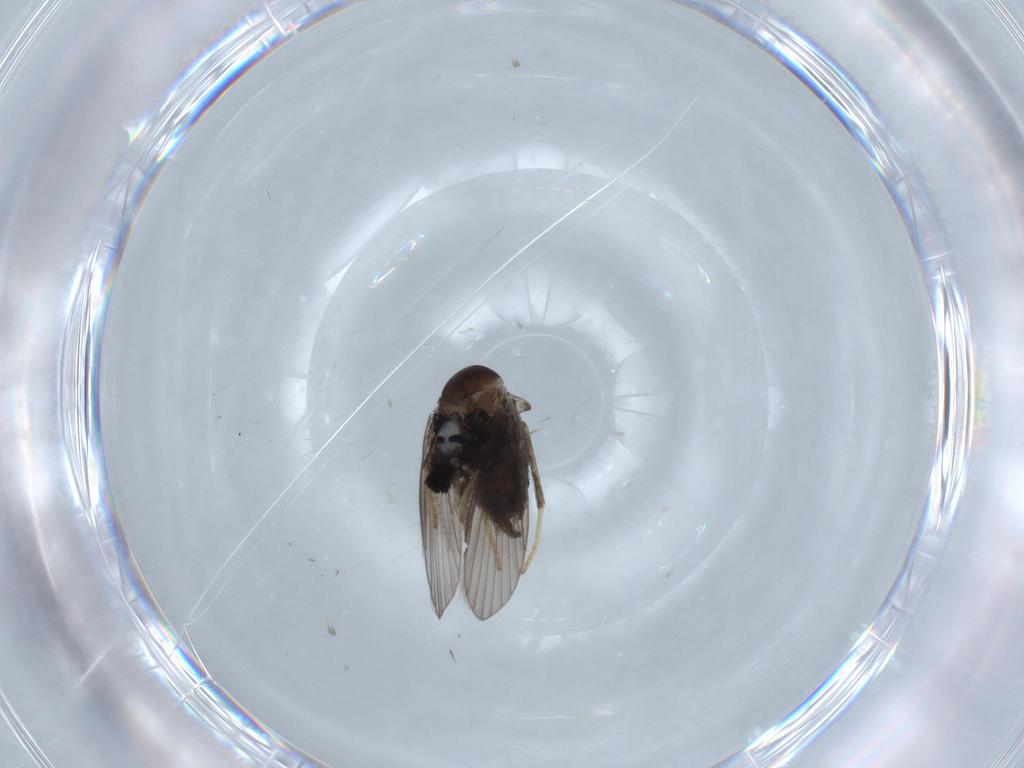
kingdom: Animalia
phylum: Arthropoda
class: Insecta
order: Diptera
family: Psychodidae
